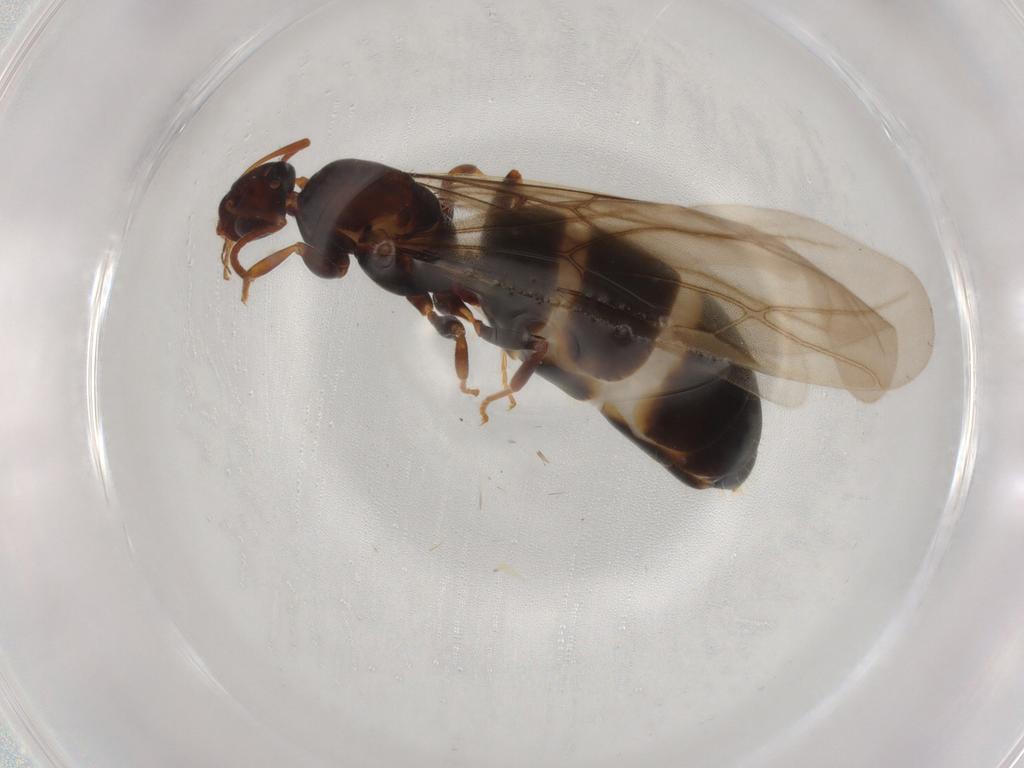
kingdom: Animalia
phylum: Arthropoda
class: Insecta
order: Hymenoptera
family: Formicidae
